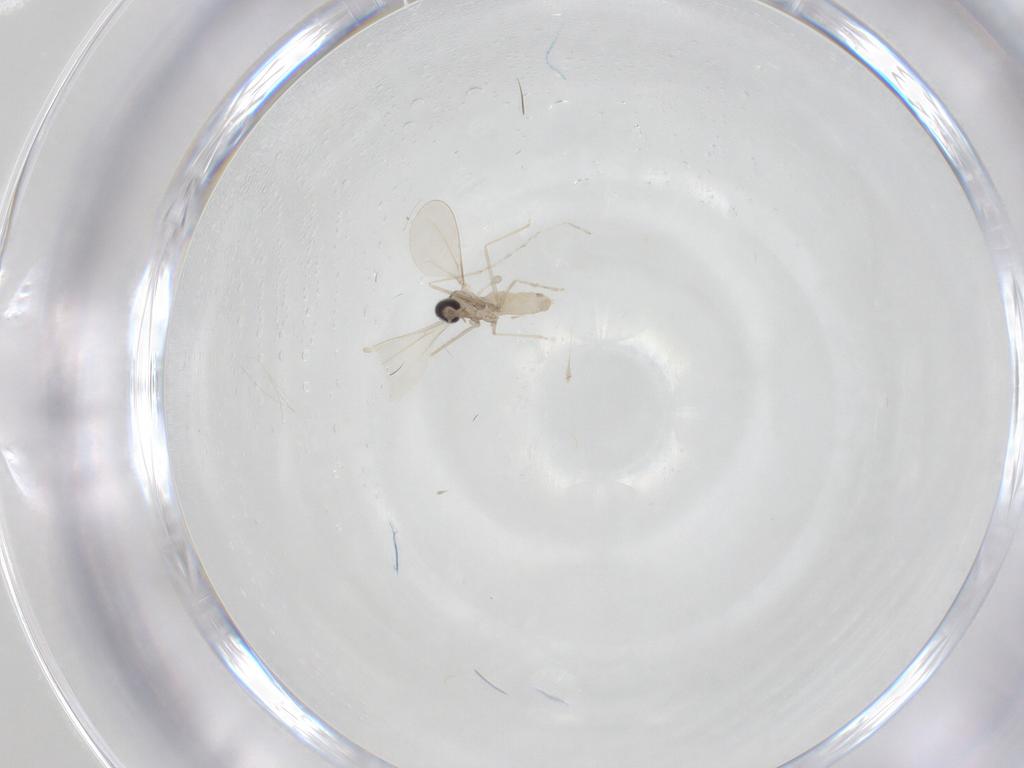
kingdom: Animalia
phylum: Arthropoda
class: Insecta
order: Diptera
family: Cecidomyiidae
